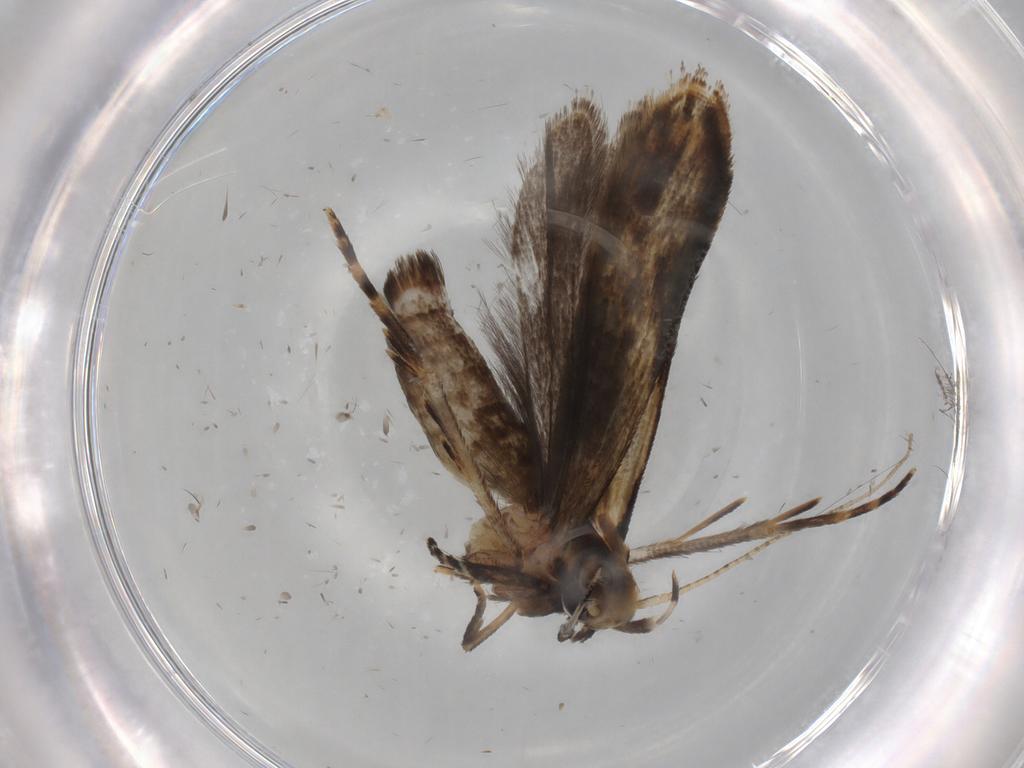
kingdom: Animalia
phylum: Arthropoda
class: Insecta
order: Lepidoptera
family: Gelechiidae
